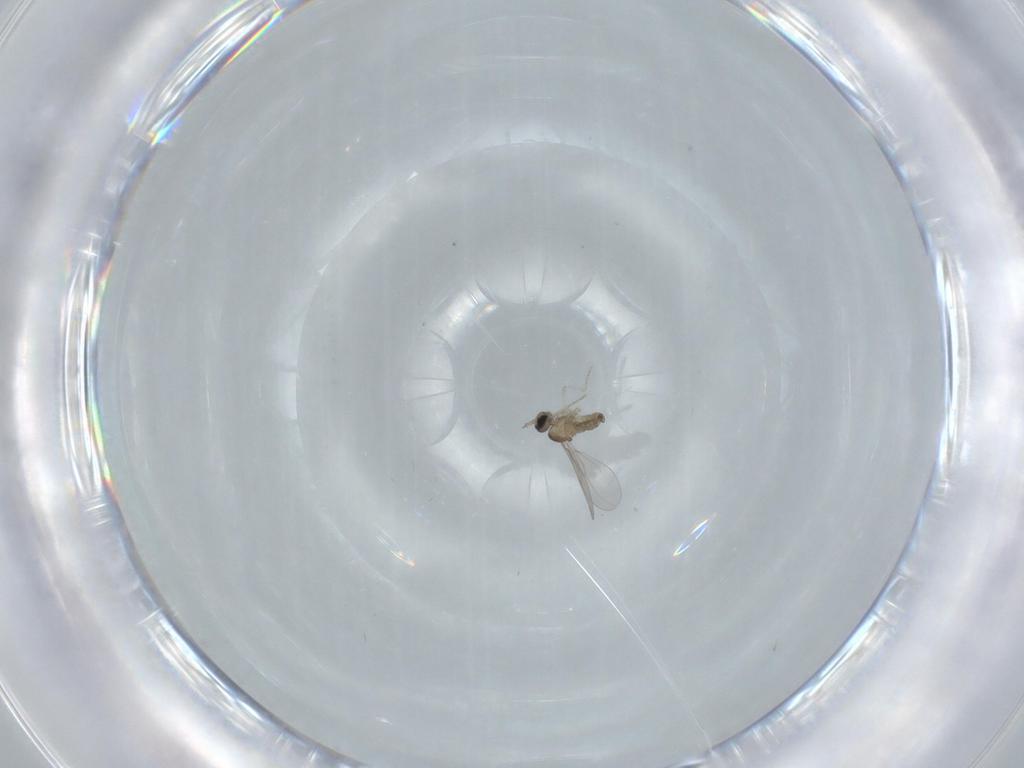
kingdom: Animalia
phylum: Arthropoda
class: Insecta
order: Diptera
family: Cecidomyiidae
